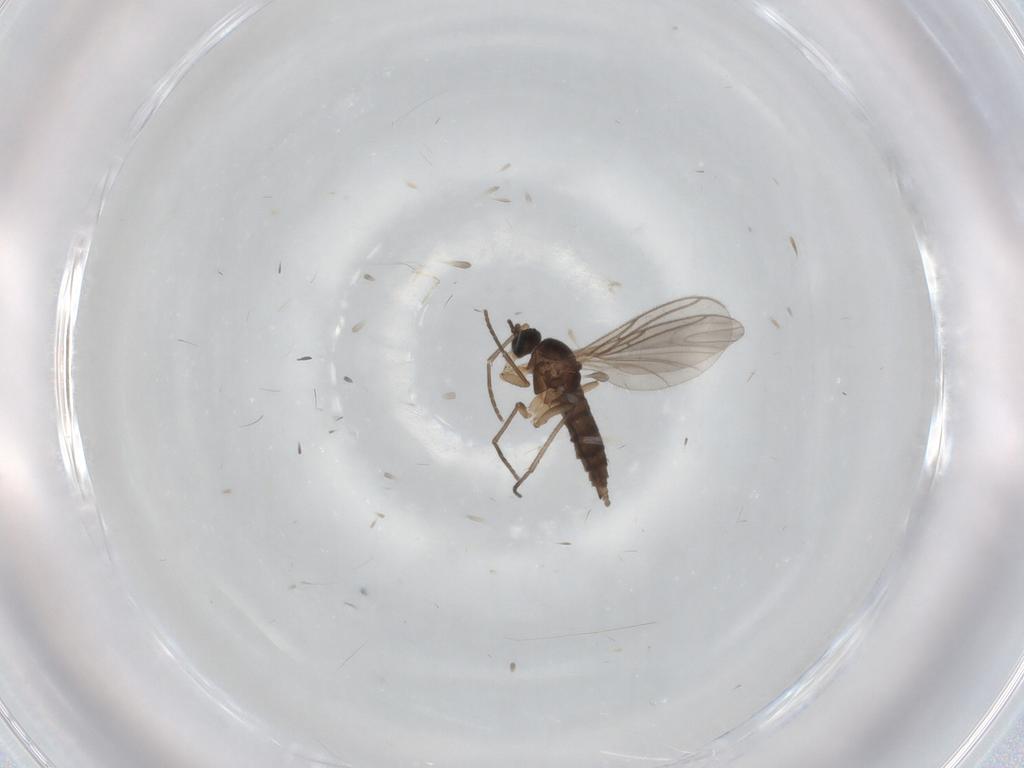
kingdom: Animalia
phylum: Arthropoda
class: Insecta
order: Diptera
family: Sciaridae
